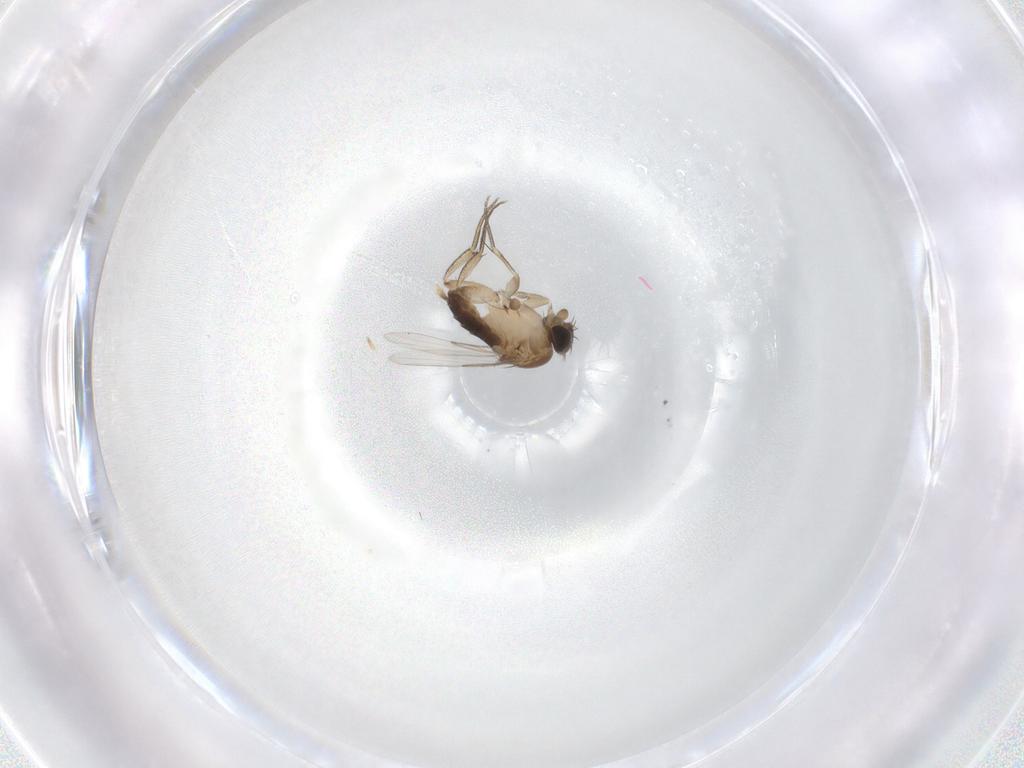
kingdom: Animalia
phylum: Arthropoda
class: Insecta
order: Diptera
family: Phoridae
